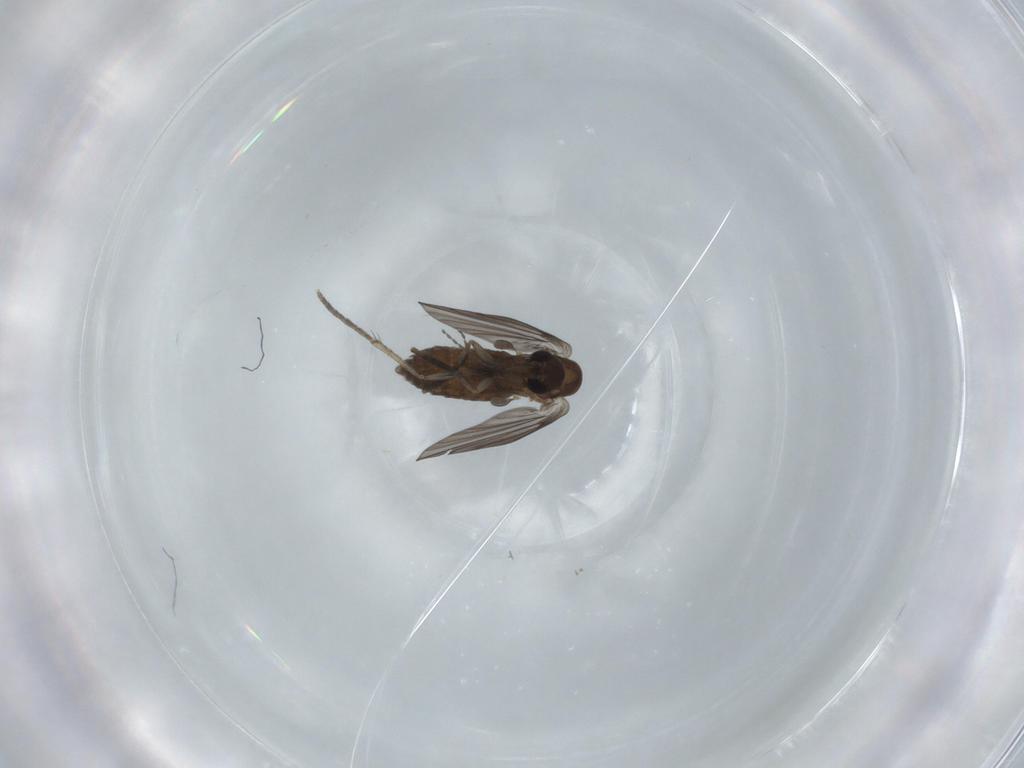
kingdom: Animalia
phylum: Arthropoda
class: Insecta
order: Diptera
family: Psychodidae
